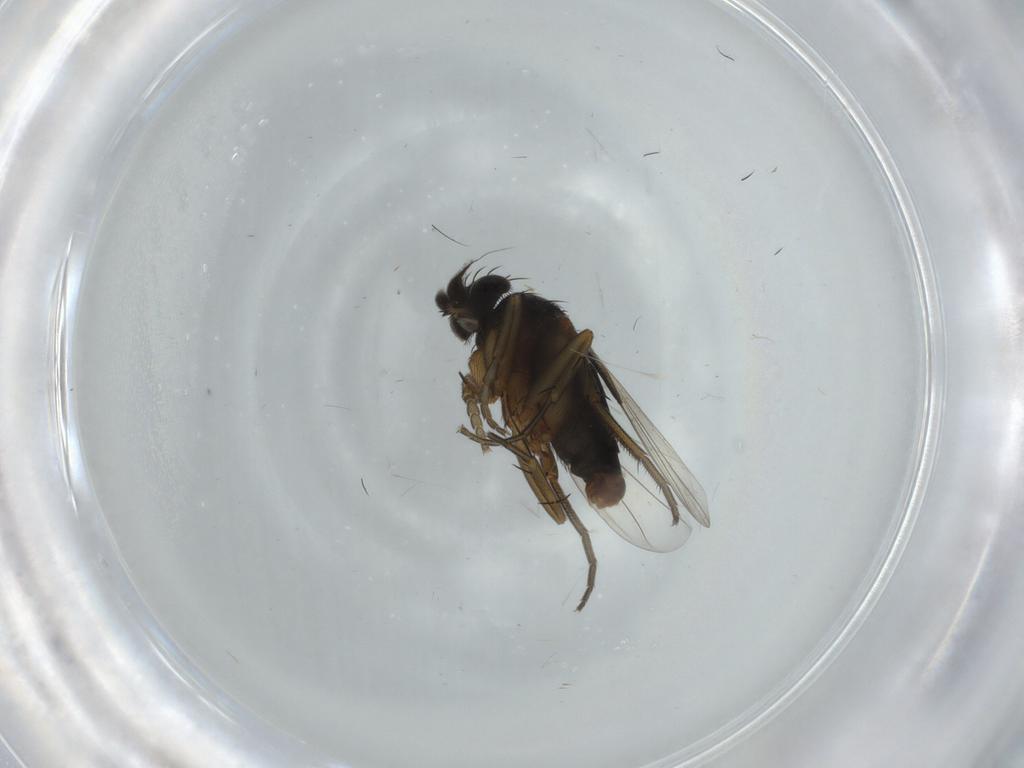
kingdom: Animalia
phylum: Arthropoda
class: Insecta
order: Diptera
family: Phoridae
